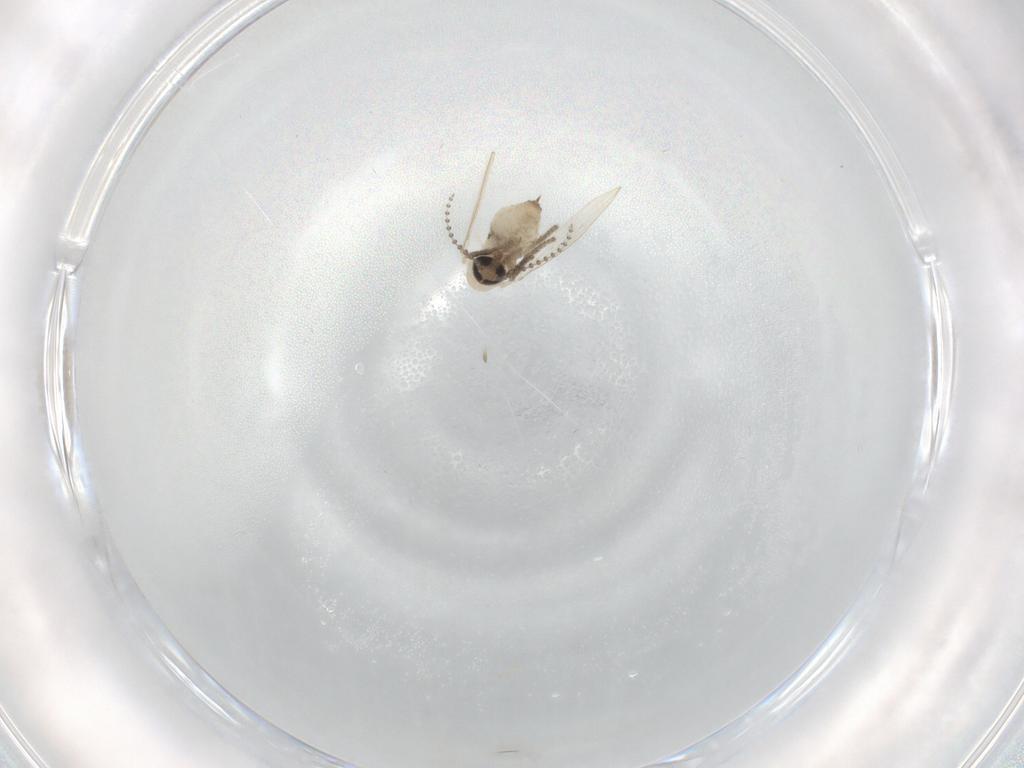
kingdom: Animalia
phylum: Arthropoda
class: Insecta
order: Diptera
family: Psychodidae
